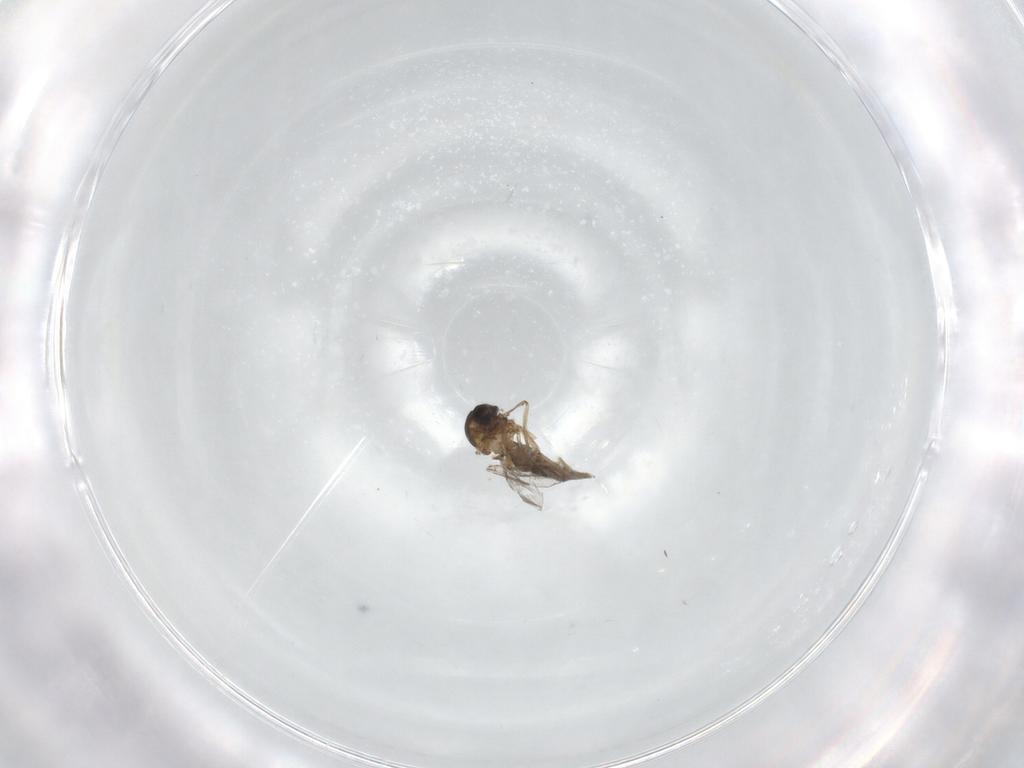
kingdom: Animalia
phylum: Arthropoda
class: Insecta
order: Diptera
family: Ceratopogonidae
